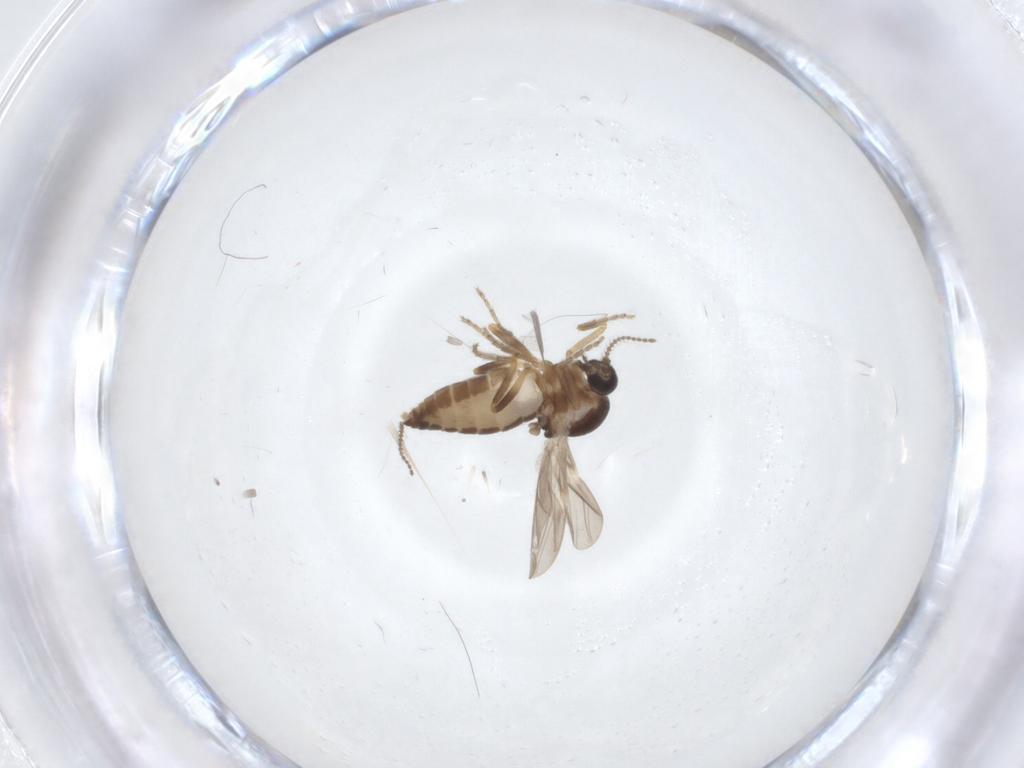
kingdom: Animalia
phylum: Arthropoda
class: Insecta
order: Diptera
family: Ceratopogonidae
